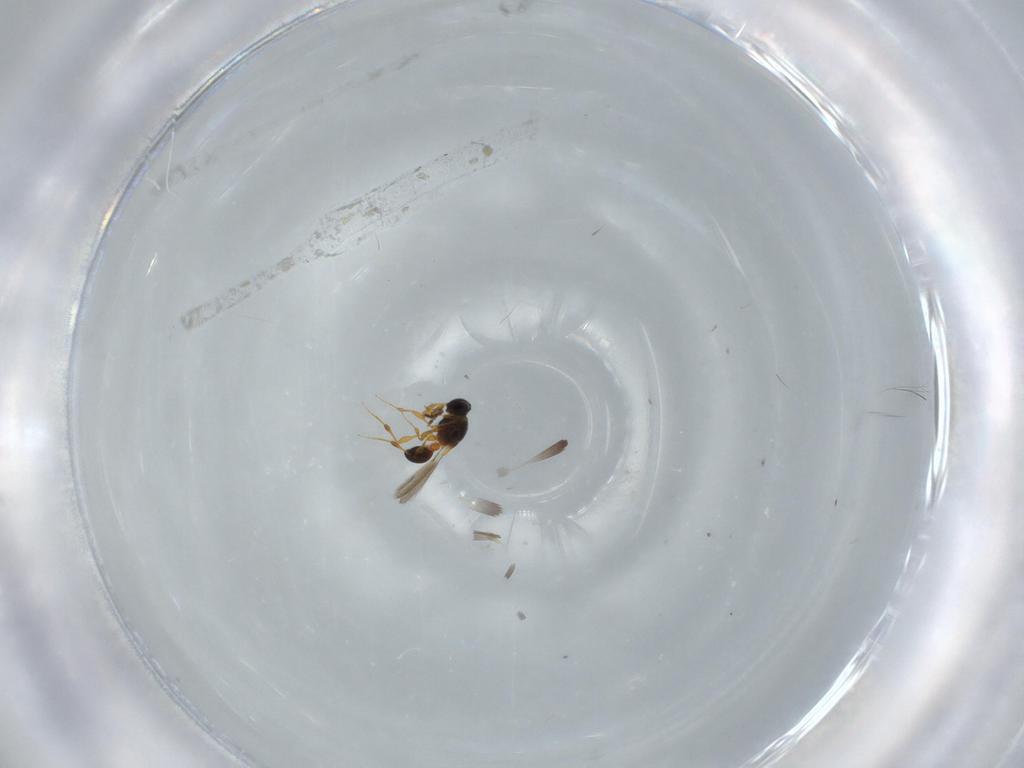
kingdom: Animalia
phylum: Arthropoda
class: Insecta
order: Hymenoptera
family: Platygastridae
